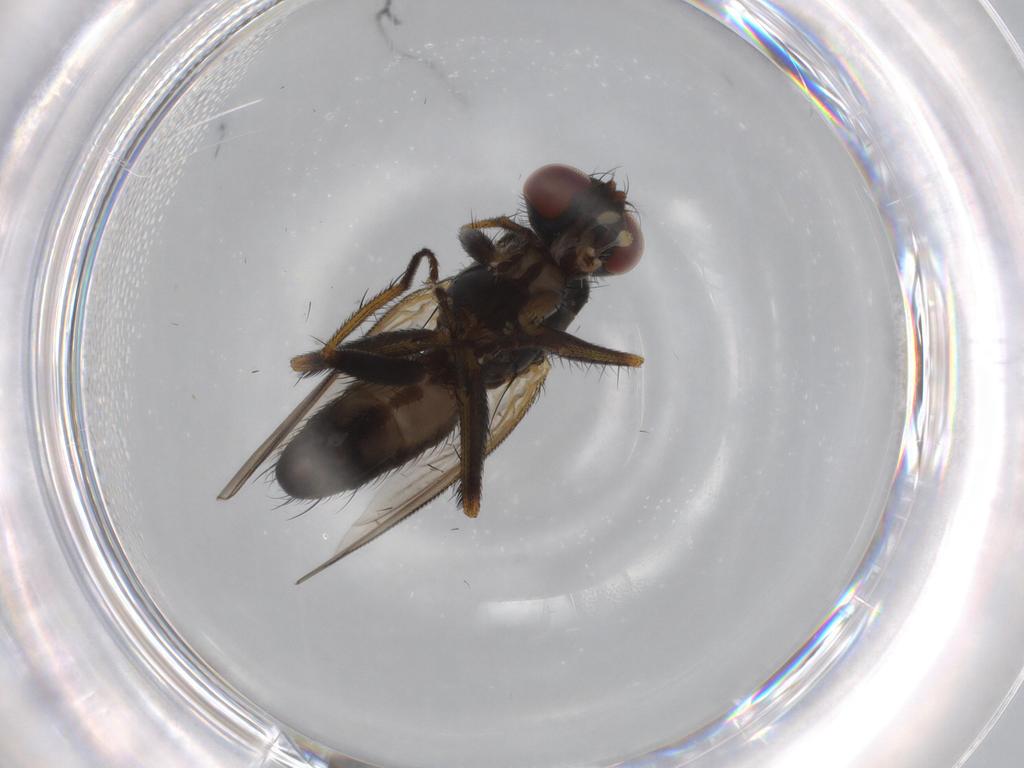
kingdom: Animalia
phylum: Arthropoda
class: Insecta
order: Diptera
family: Muscidae
